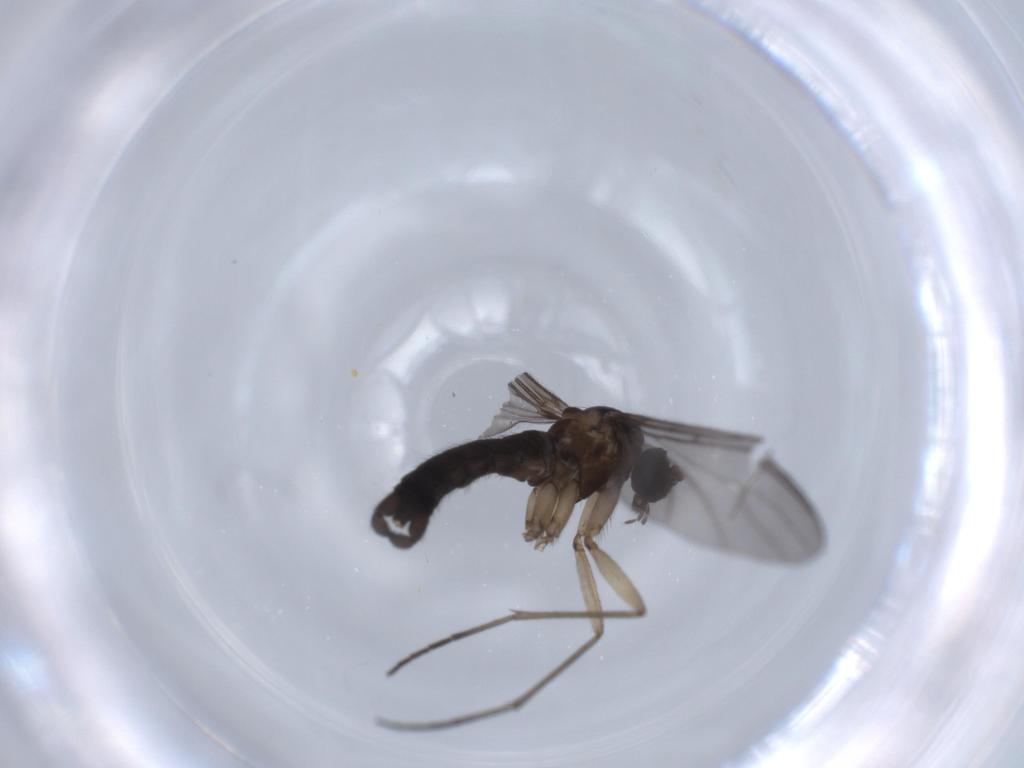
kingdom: Animalia
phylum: Arthropoda
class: Insecta
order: Diptera
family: Sciaridae
